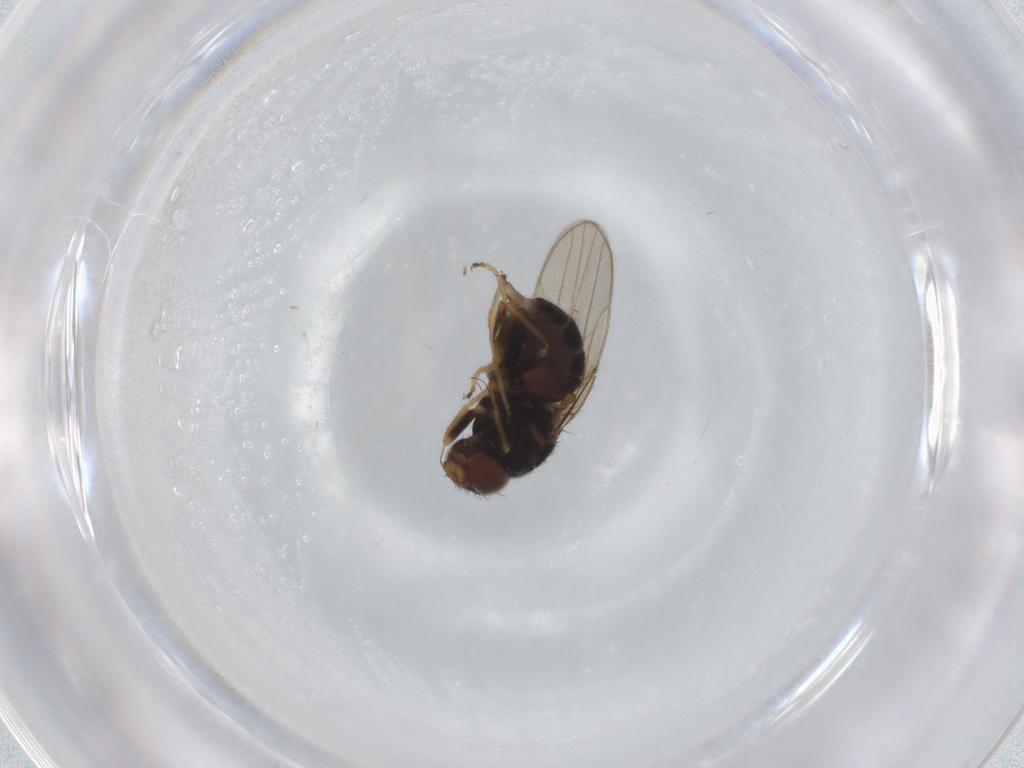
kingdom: Animalia
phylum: Arthropoda
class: Insecta
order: Diptera
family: Chloropidae
